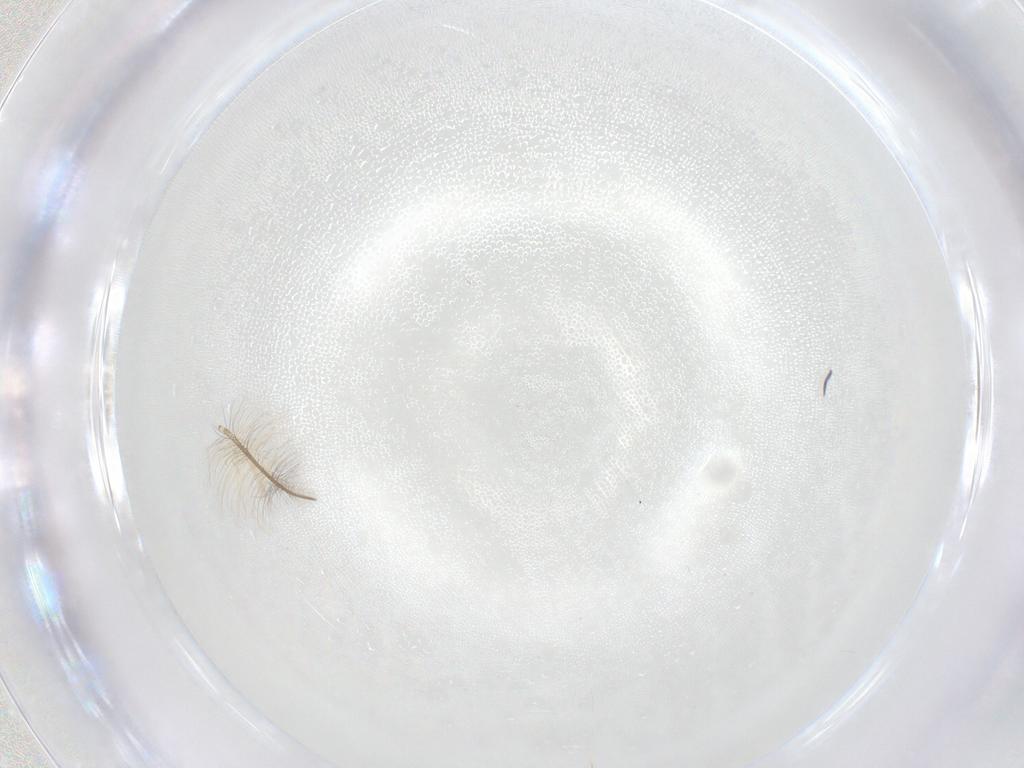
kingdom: Animalia
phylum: Arthropoda
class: Insecta
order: Diptera
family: Chironomidae
